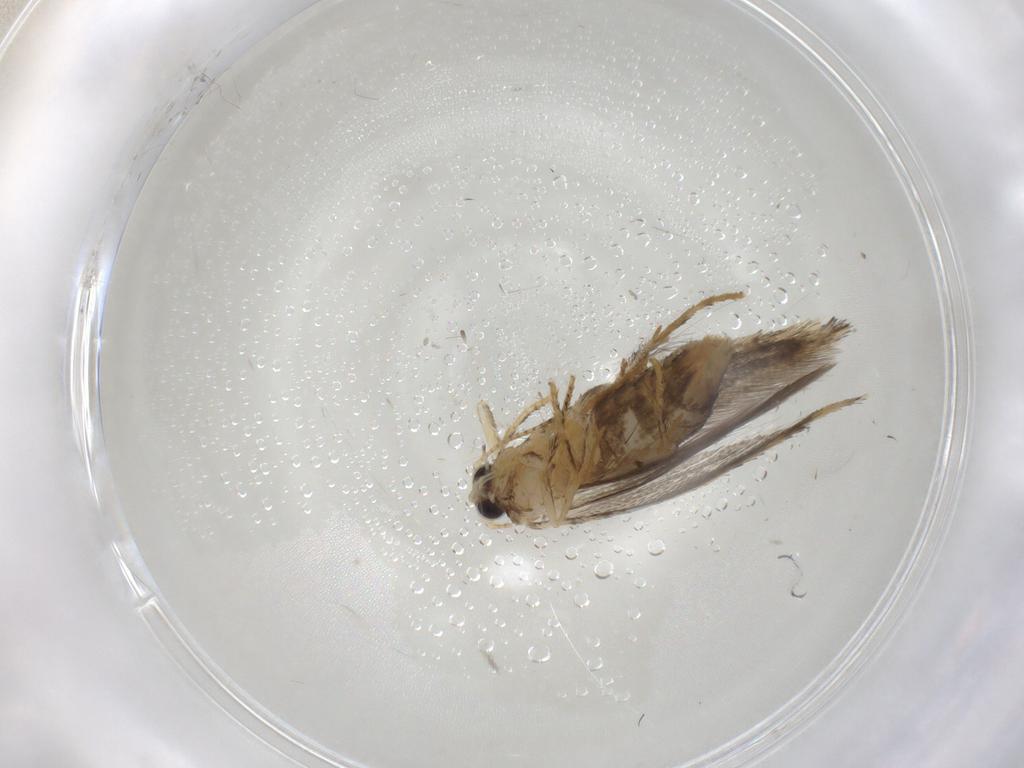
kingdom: Animalia
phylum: Arthropoda
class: Insecta
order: Lepidoptera
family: Tineidae
